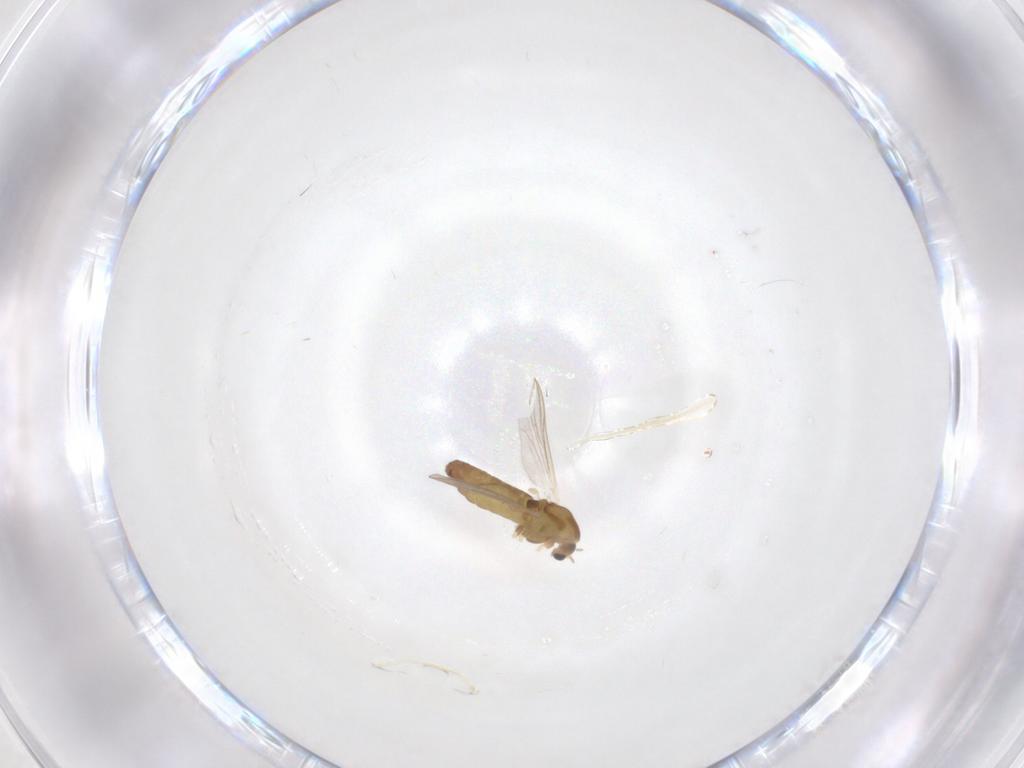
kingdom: Animalia
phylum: Arthropoda
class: Insecta
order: Diptera
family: Chironomidae
